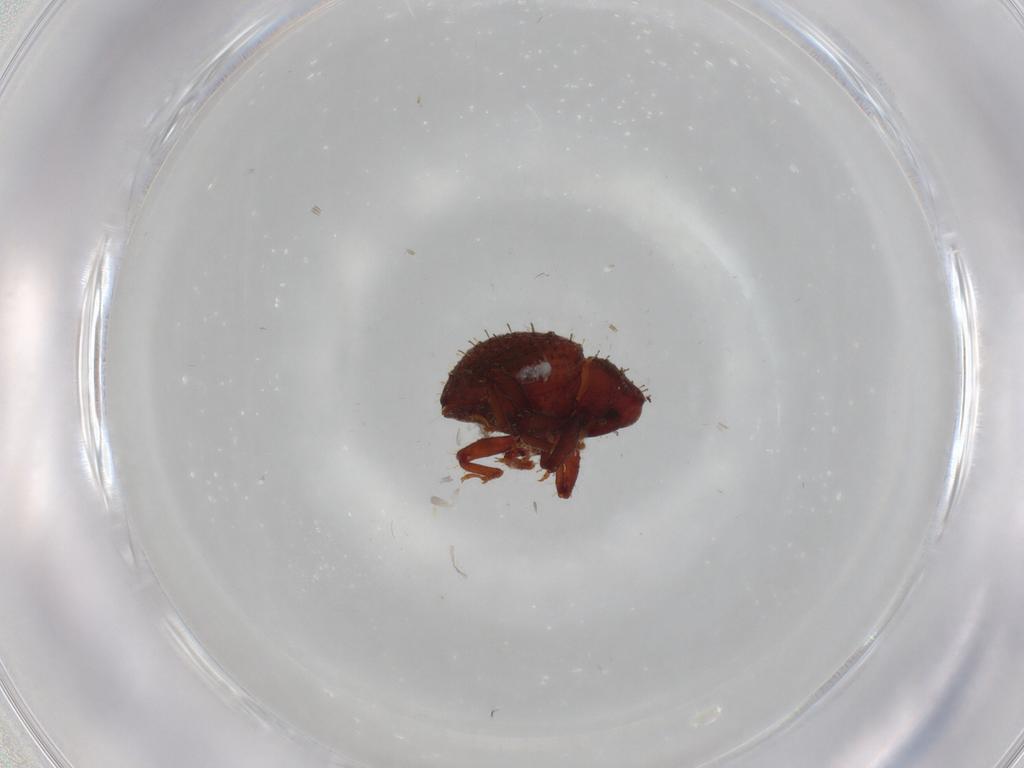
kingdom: Animalia
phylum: Arthropoda
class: Insecta
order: Coleoptera
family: Curculionidae
